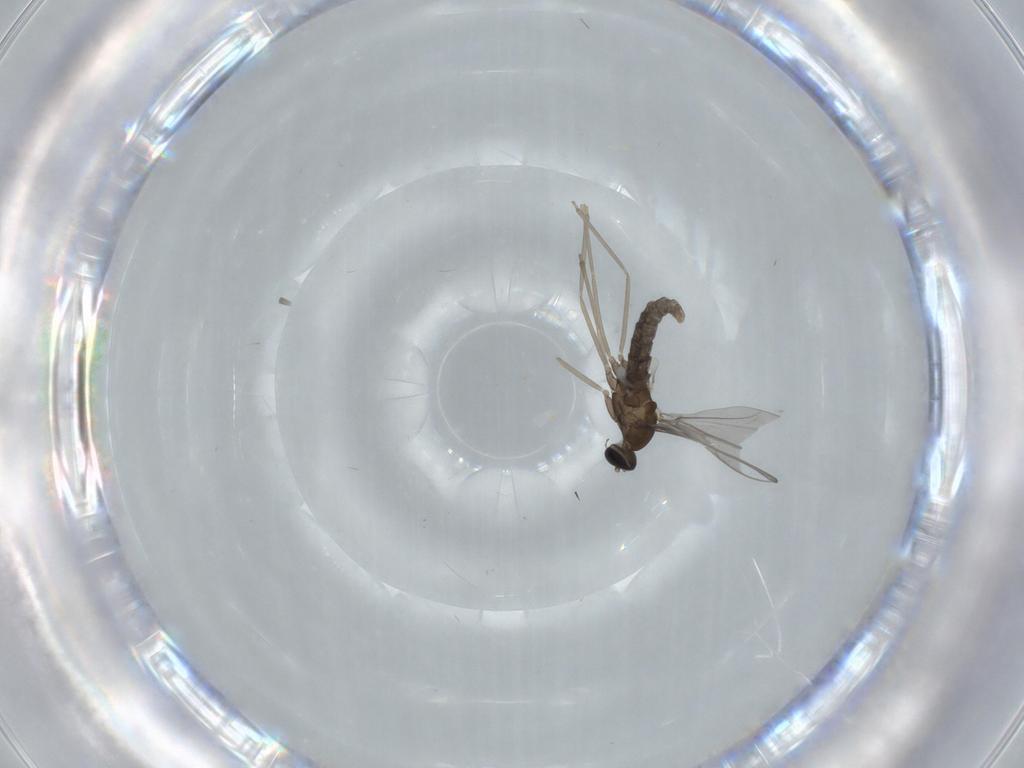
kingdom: Animalia
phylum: Arthropoda
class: Insecta
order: Diptera
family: Cecidomyiidae
